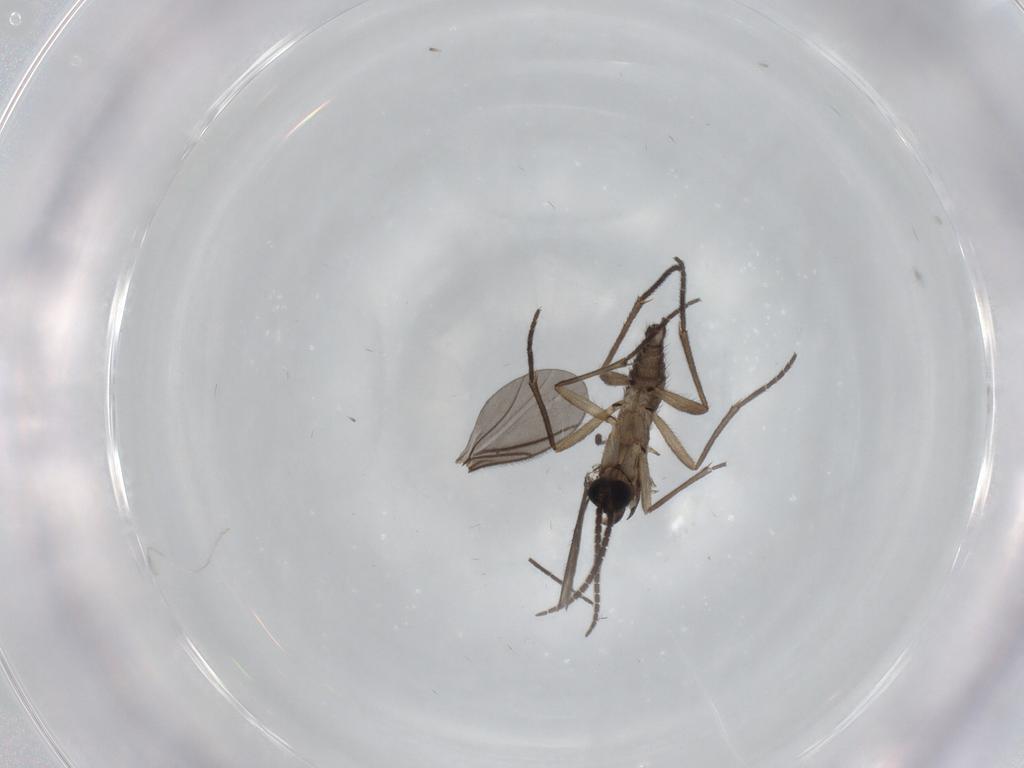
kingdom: Animalia
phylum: Arthropoda
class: Insecta
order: Diptera
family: Sciaridae
